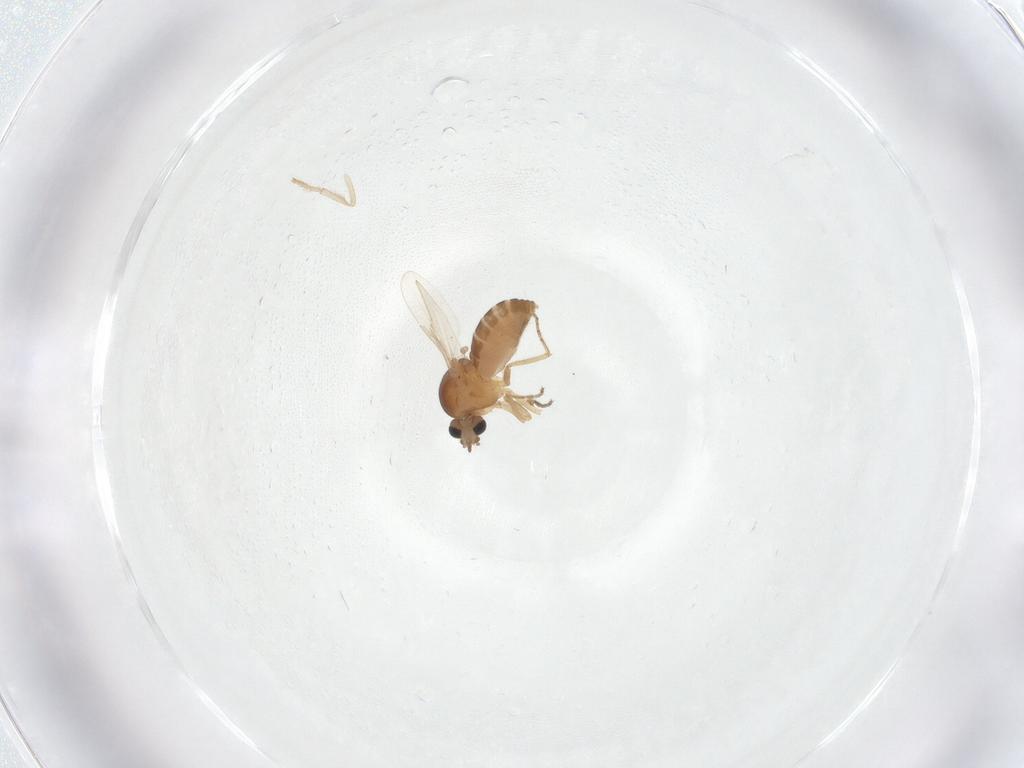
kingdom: Animalia
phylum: Arthropoda
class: Insecta
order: Diptera
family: Ceratopogonidae
